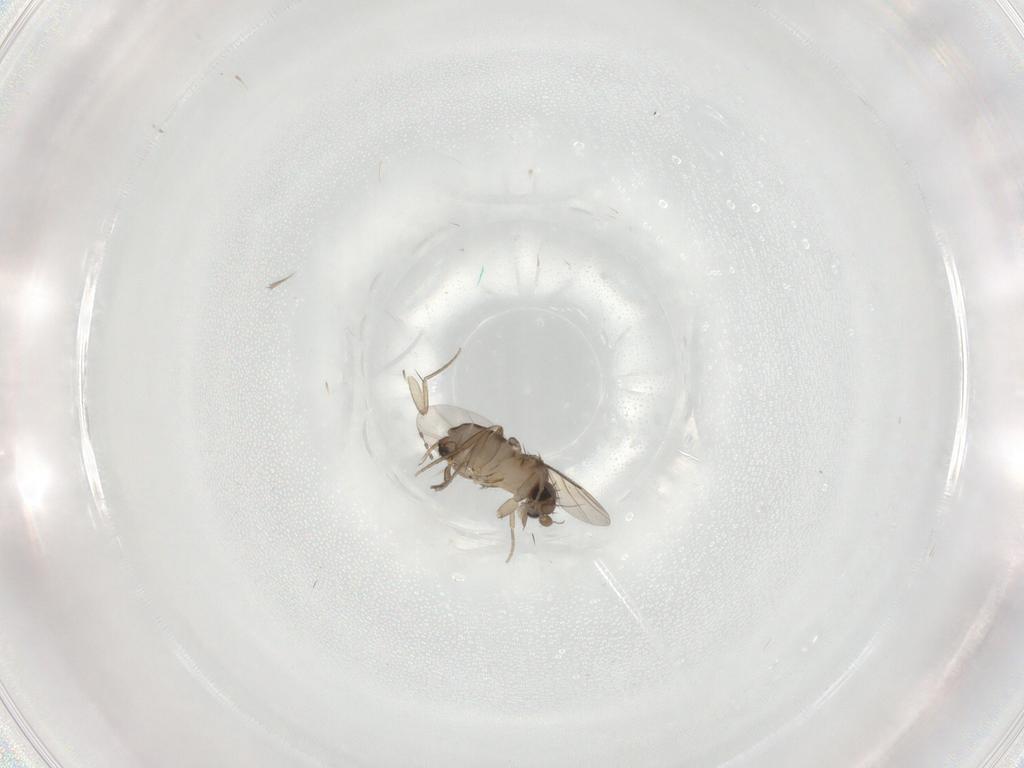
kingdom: Animalia
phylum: Arthropoda
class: Insecta
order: Diptera
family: Phoridae
